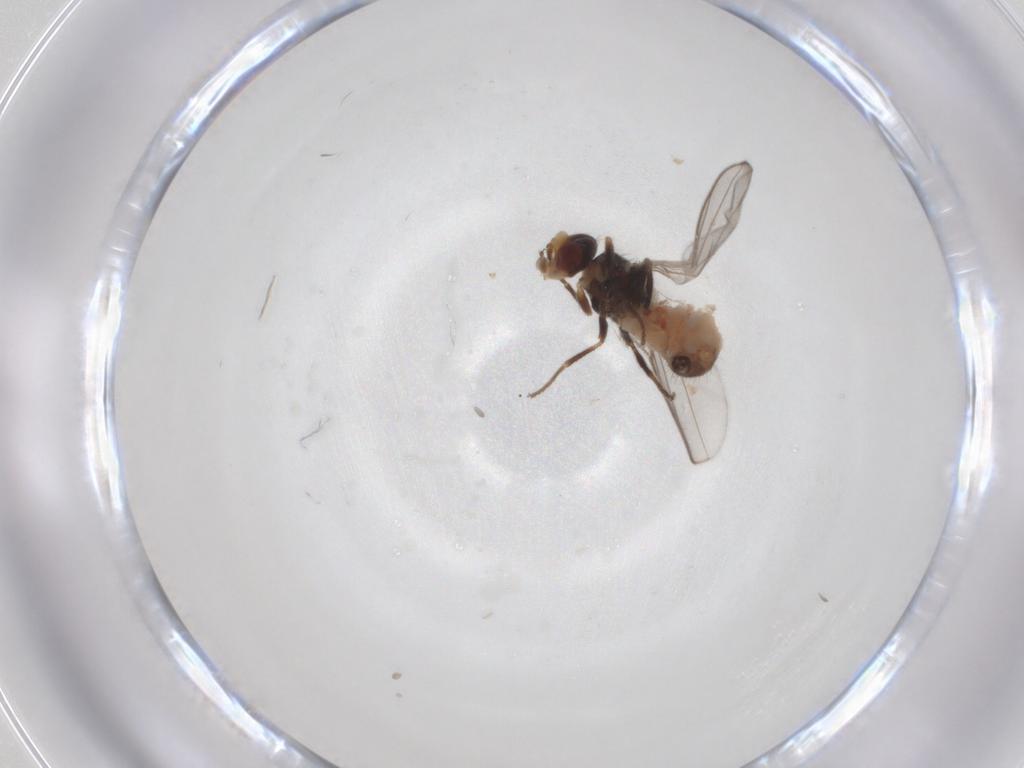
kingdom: Animalia
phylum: Arthropoda
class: Insecta
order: Diptera
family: Chloropidae
